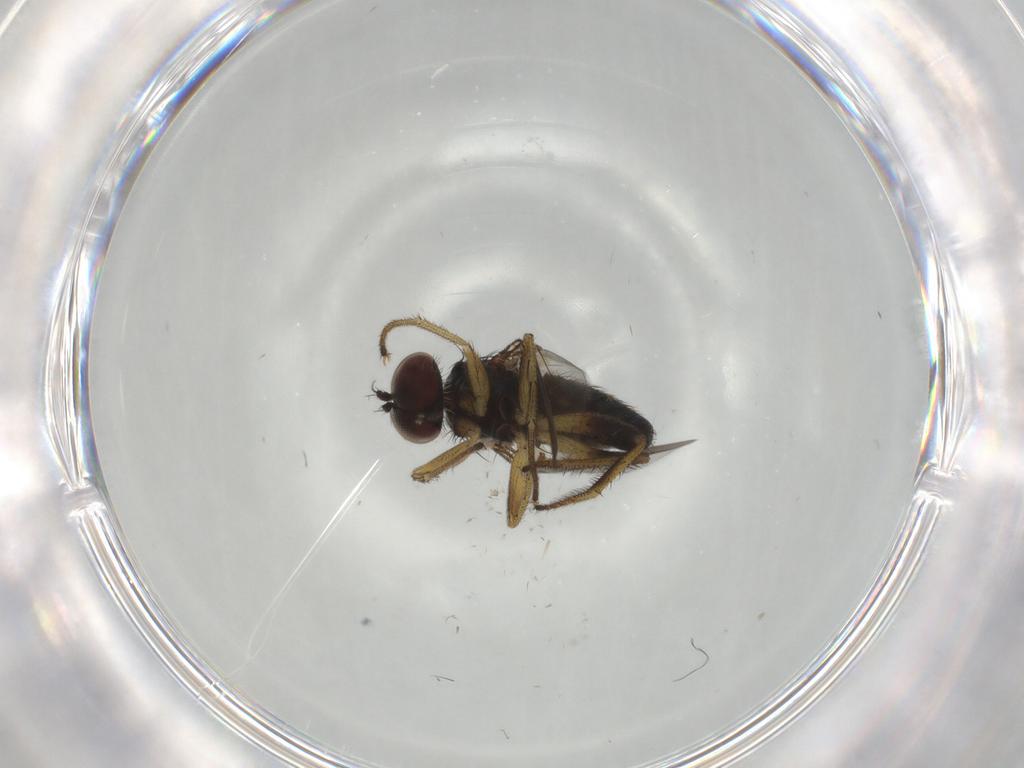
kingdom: Animalia
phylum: Arthropoda
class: Insecta
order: Diptera
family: Dolichopodidae
